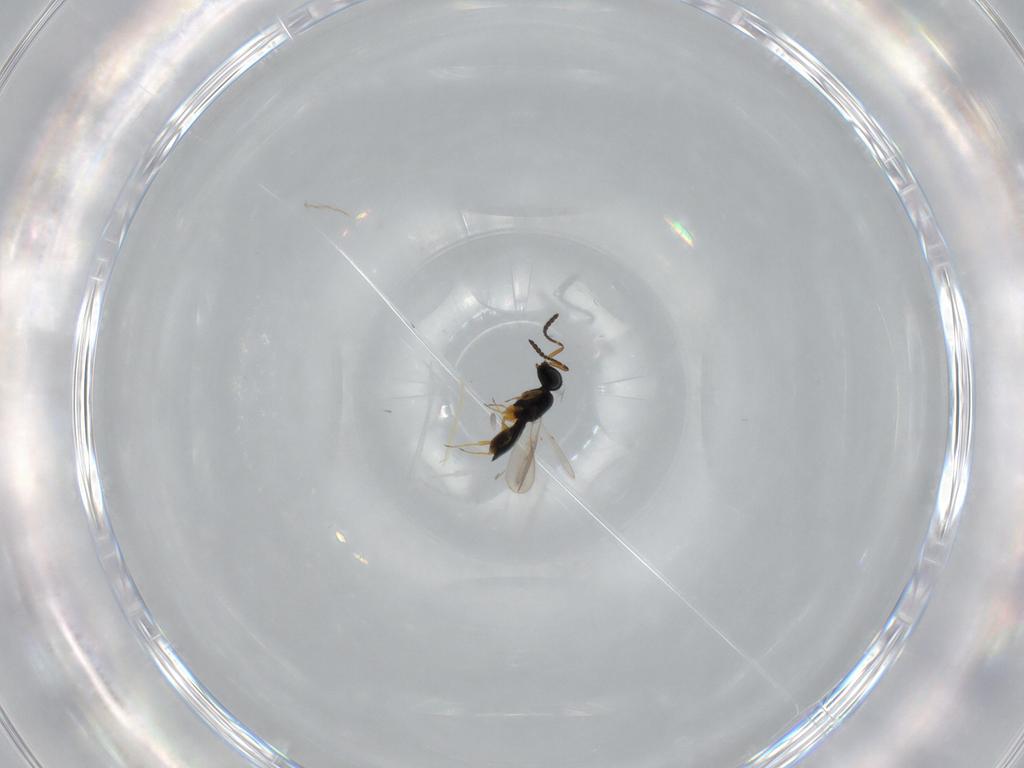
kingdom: Animalia
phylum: Arthropoda
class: Insecta
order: Hymenoptera
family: Scelionidae
